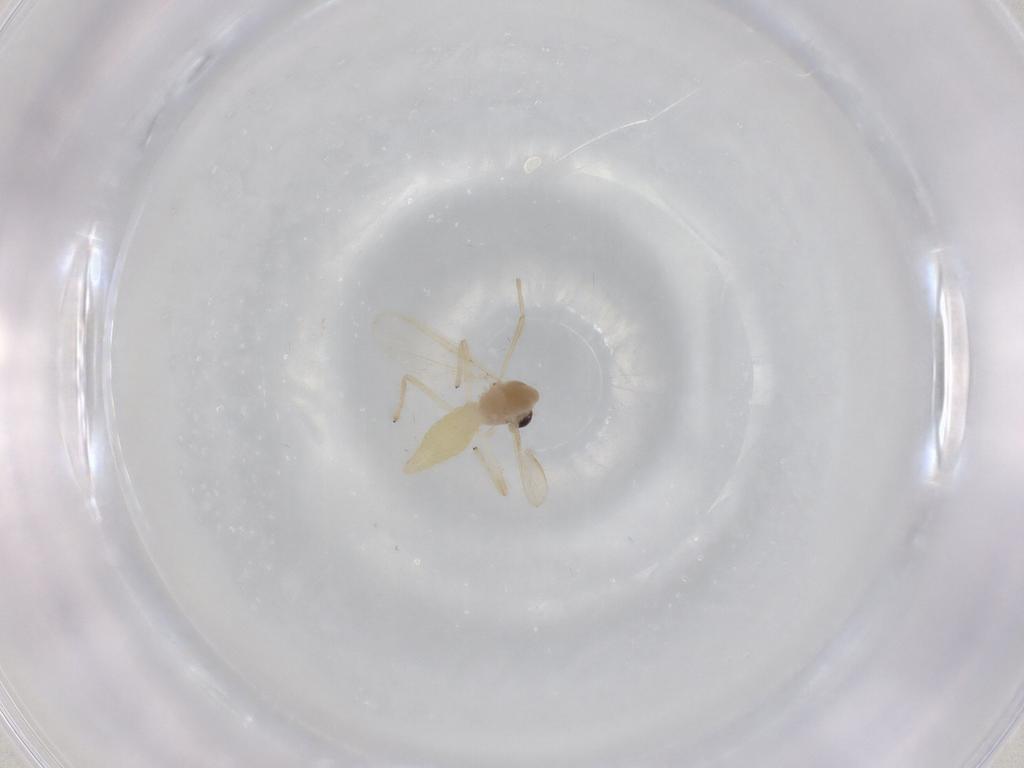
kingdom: Animalia
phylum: Arthropoda
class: Insecta
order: Diptera
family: Chironomidae
